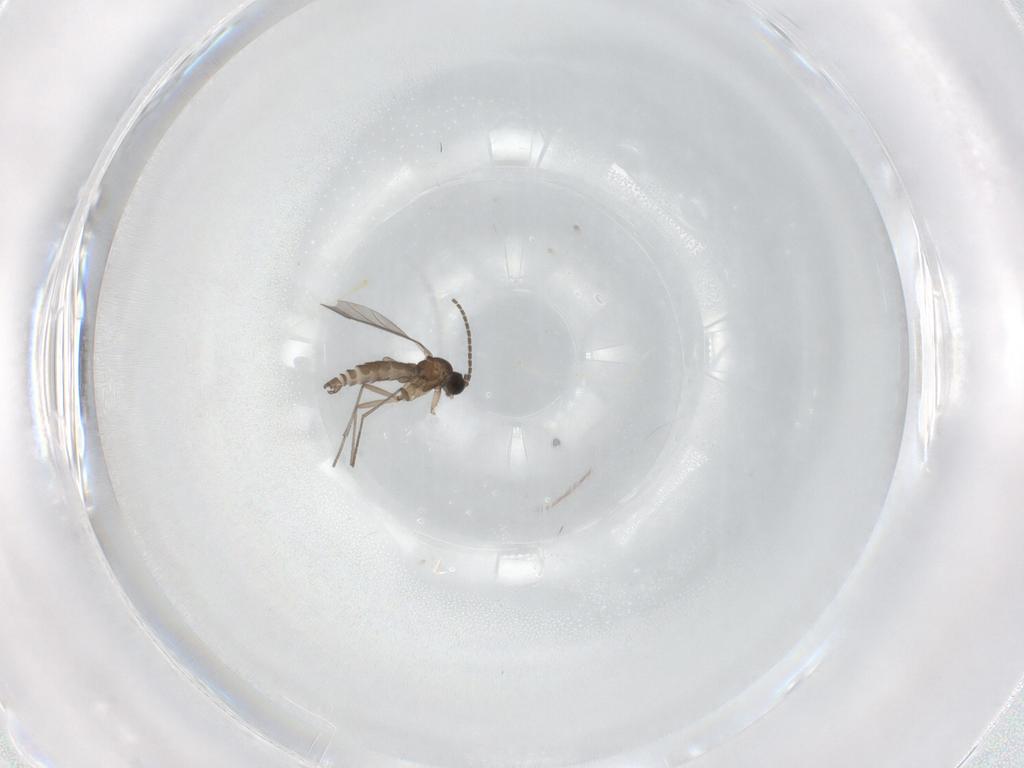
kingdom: Animalia
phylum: Arthropoda
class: Insecta
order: Diptera
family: Sciaridae
